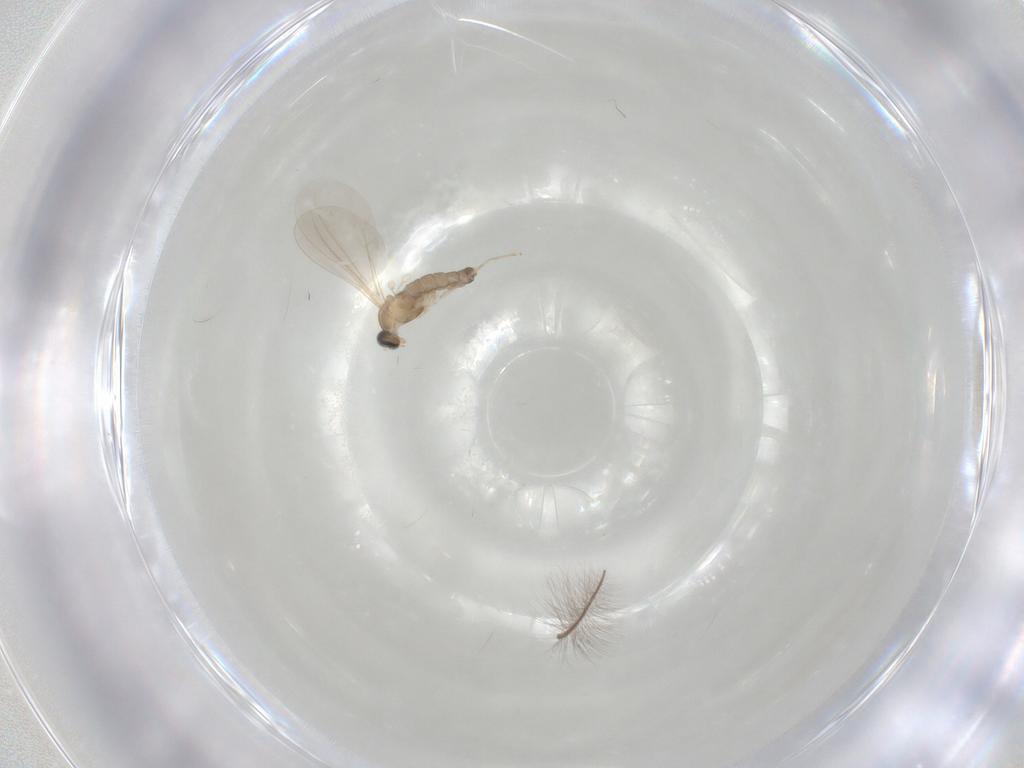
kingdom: Animalia
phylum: Arthropoda
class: Insecta
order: Diptera
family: Cecidomyiidae
